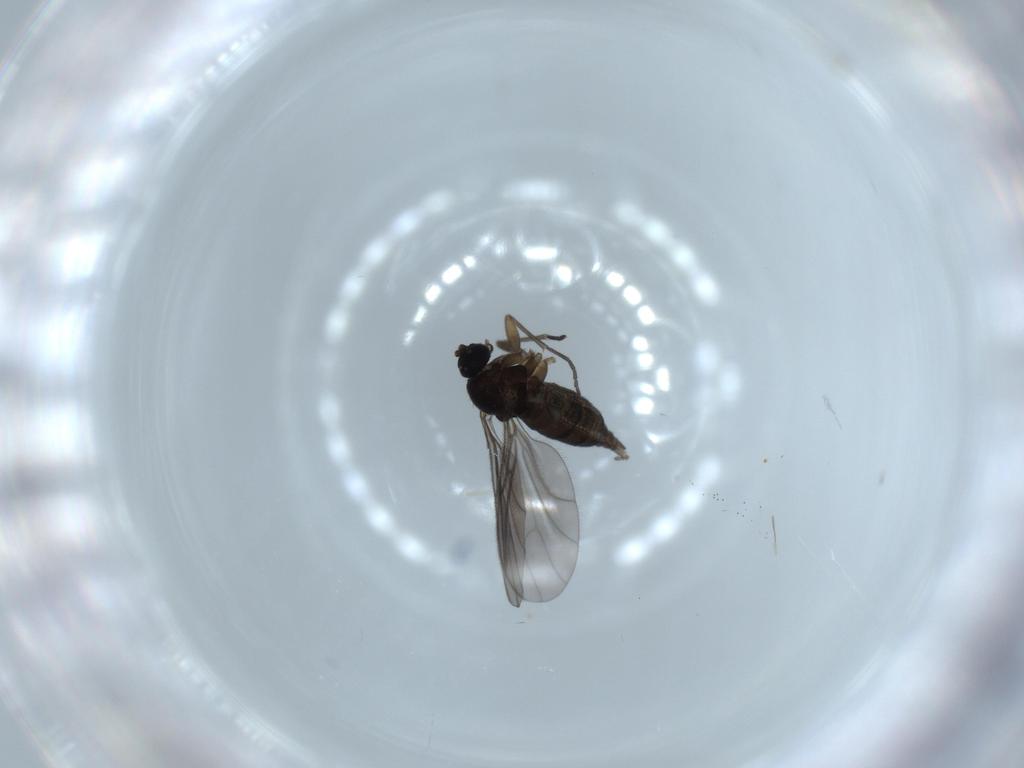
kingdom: Animalia
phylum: Arthropoda
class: Insecta
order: Diptera
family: Sciaridae
